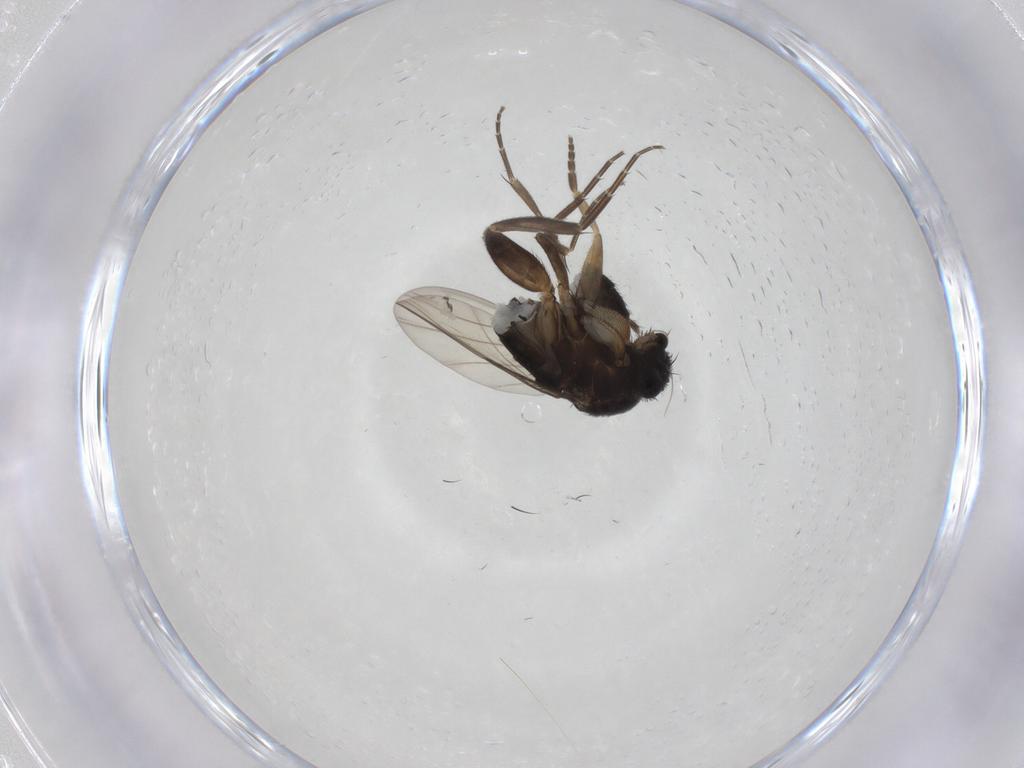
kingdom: Animalia
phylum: Arthropoda
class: Insecta
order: Diptera
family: Phoridae
